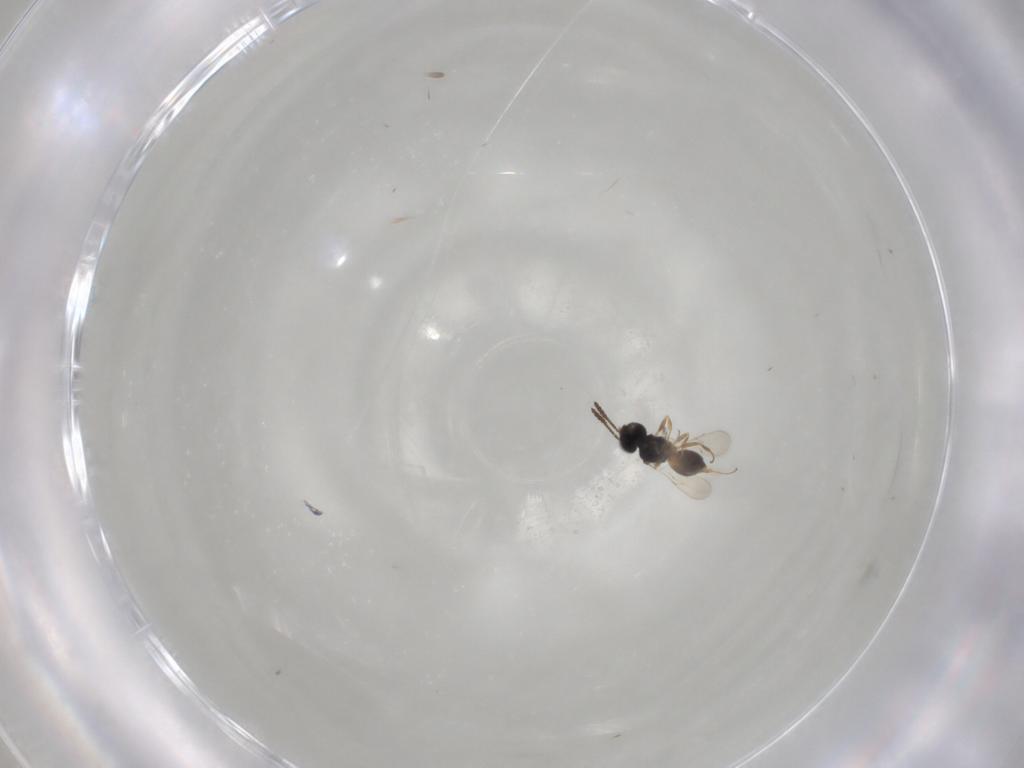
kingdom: Animalia
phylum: Arthropoda
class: Insecta
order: Hymenoptera
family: Scelionidae
